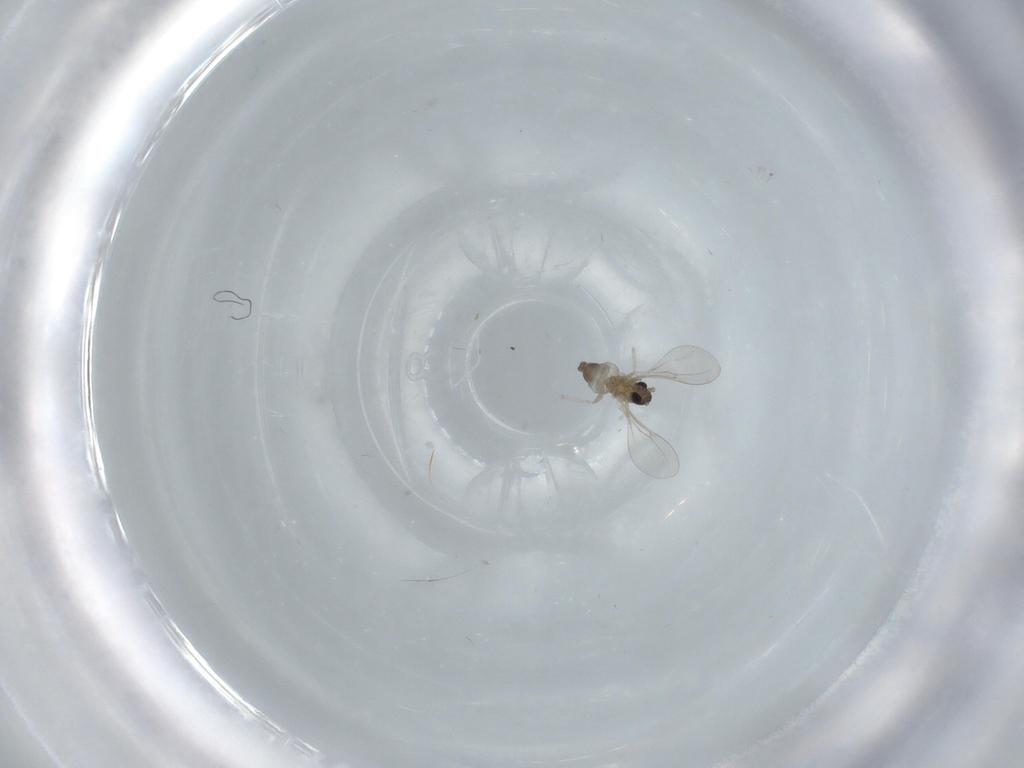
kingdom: Animalia
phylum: Arthropoda
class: Insecta
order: Diptera
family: Cecidomyiidae
